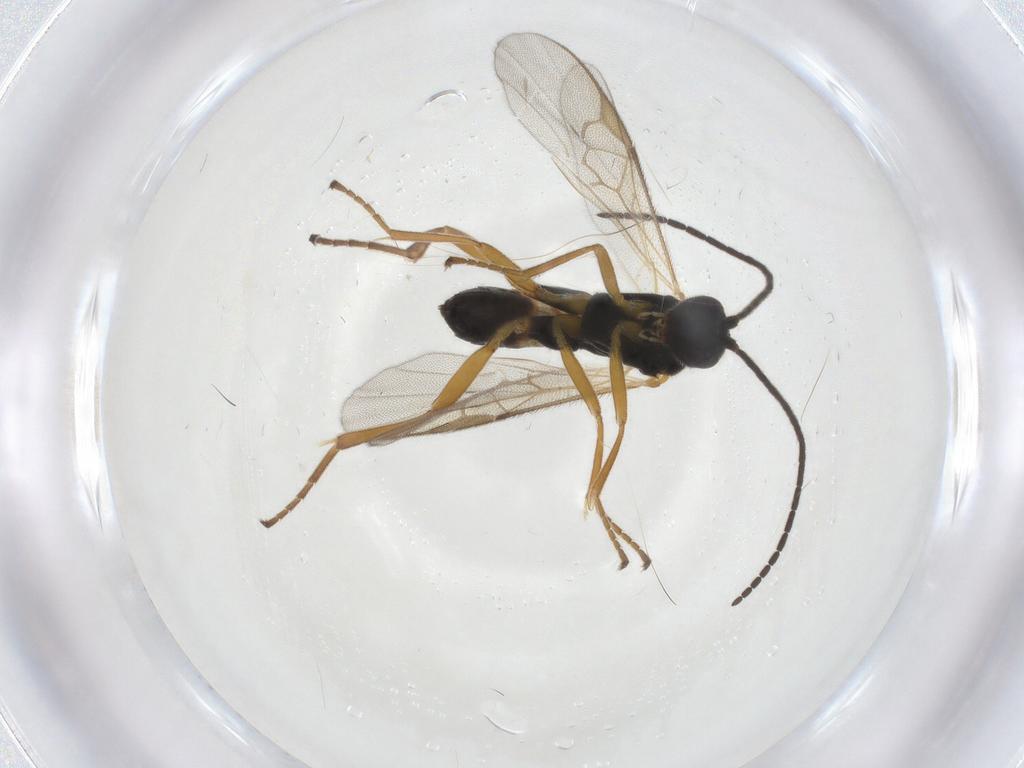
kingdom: Animalia
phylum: Arthropoda
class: Insecta
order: Hymenoptera
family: Braconidae
